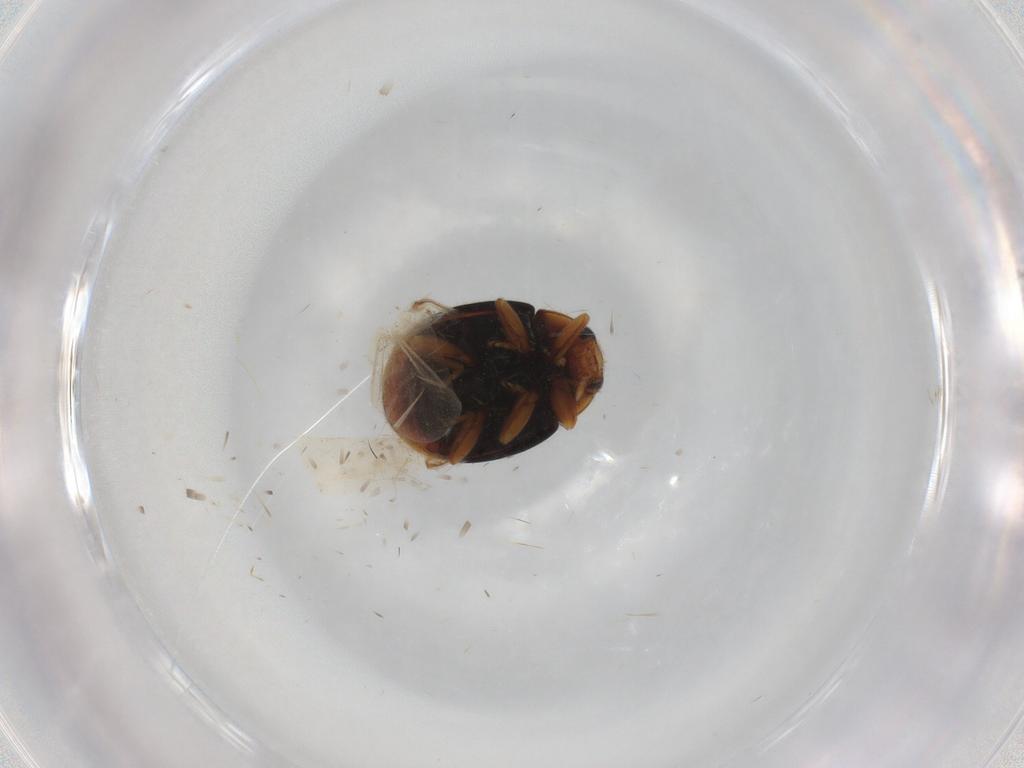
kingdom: Animalia
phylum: Arthropoda
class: Insecta
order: Coleoptera
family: Coccinellidae
